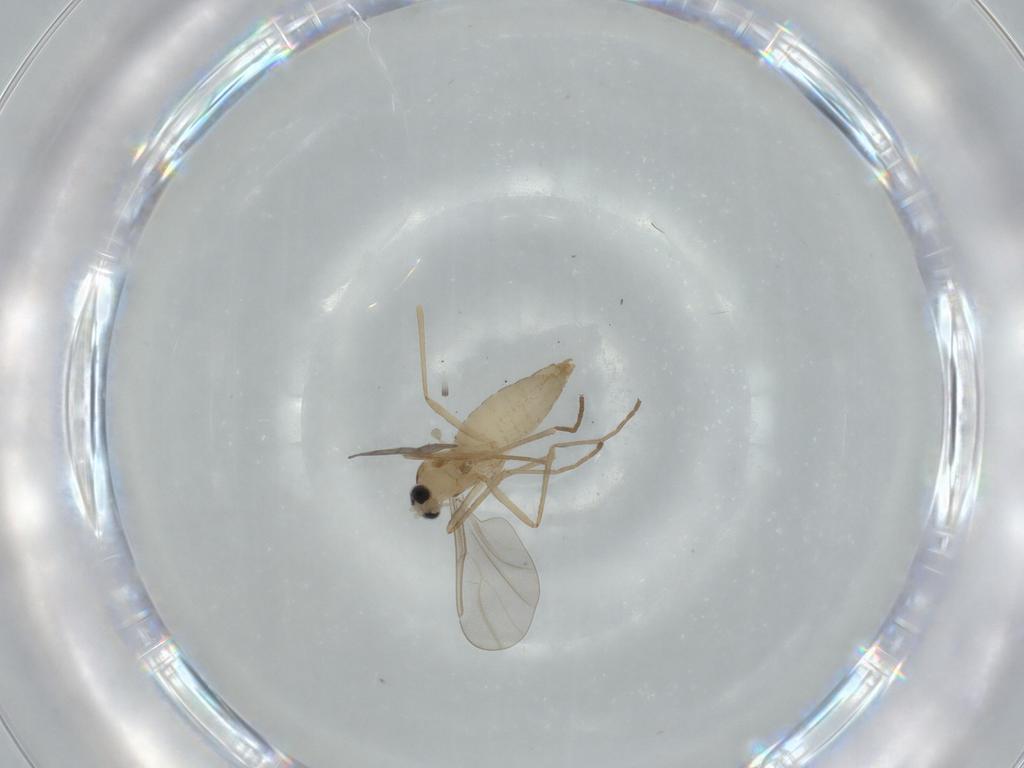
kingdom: Animalia
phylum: Arthropoda
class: Insecta
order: Diptera
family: Cecidomyiidae
